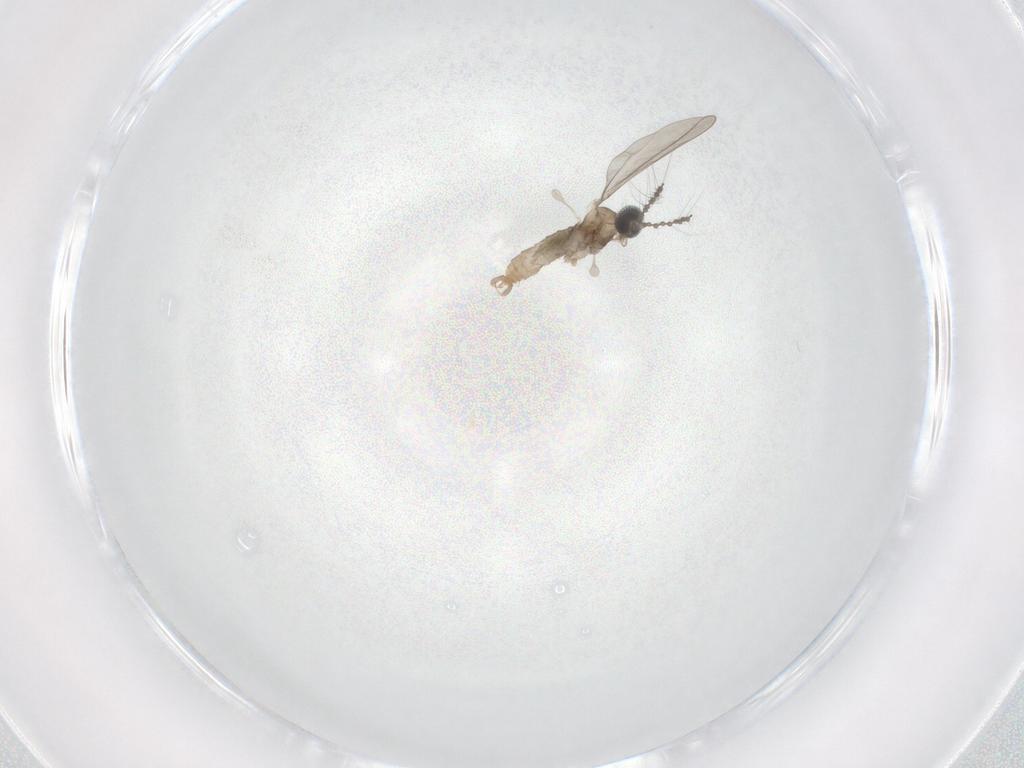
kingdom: Animalia
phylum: Arthropoda
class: Insecta
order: Diptera
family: Cecidomyiidae
